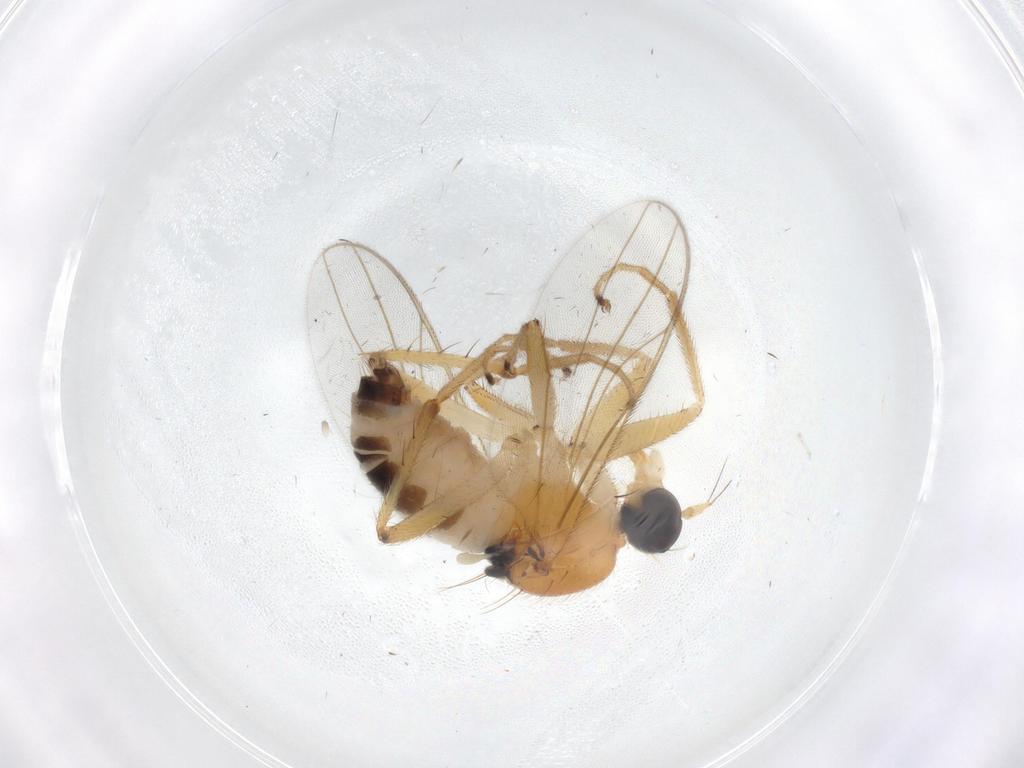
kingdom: Animalia
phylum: Arthropoda
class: Insecta
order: Diptera
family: Hybotidae
